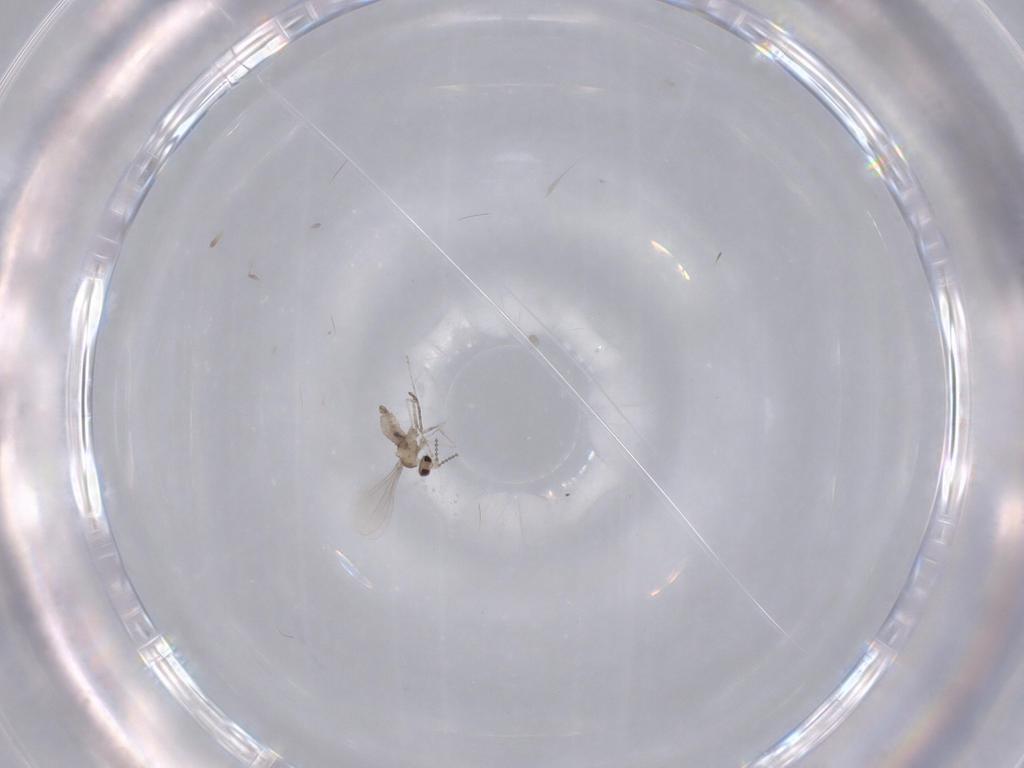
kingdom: Animalia
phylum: Arthropoda
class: Insecta
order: Diptera
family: Cecidomyiidae
